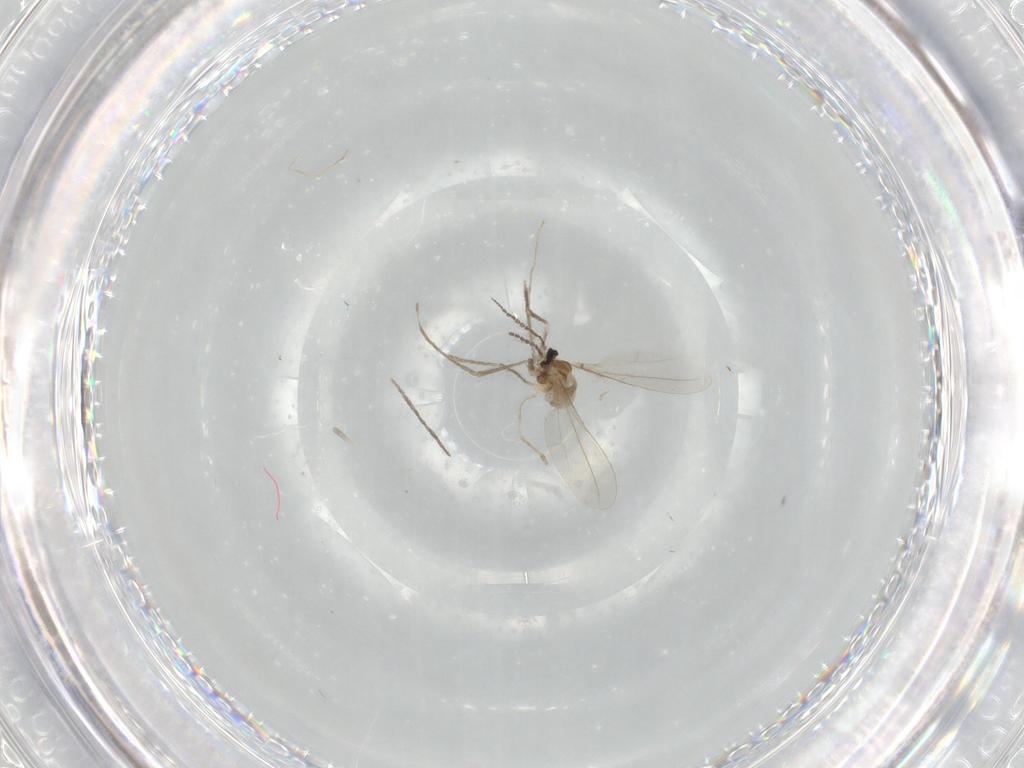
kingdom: Animalia
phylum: Arthropoda
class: Insecta
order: Diptera
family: Cecidomyiidae
